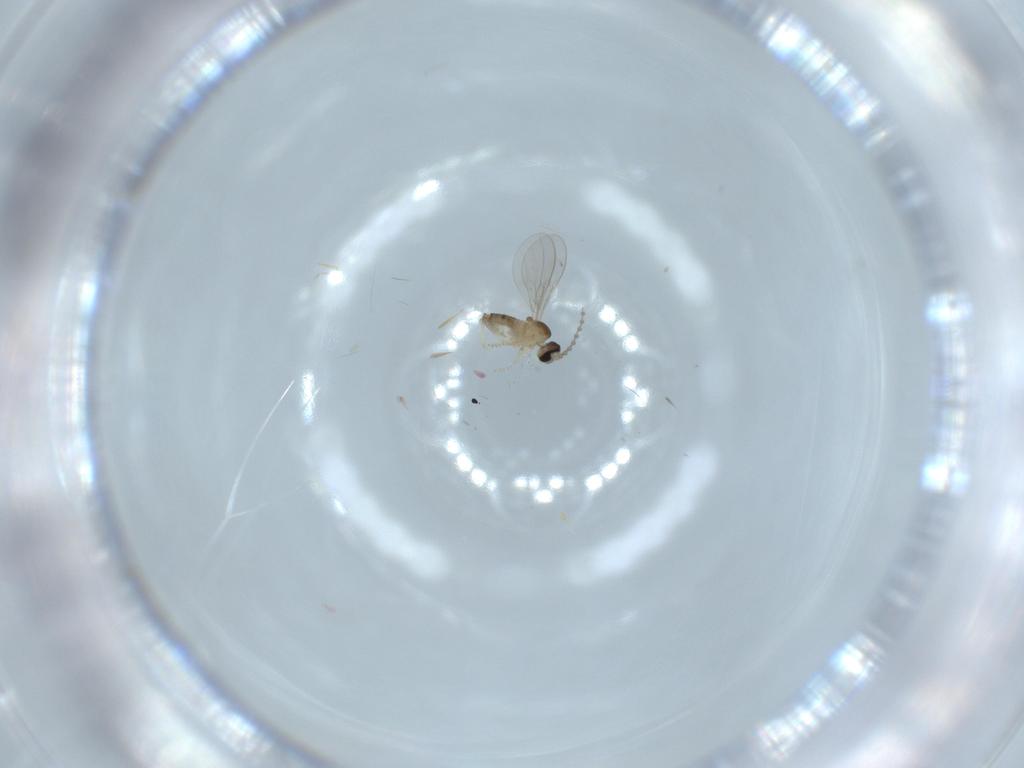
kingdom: Animalia
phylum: Arthropoda
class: Insecta
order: Diptera
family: Cecidomyiidae
